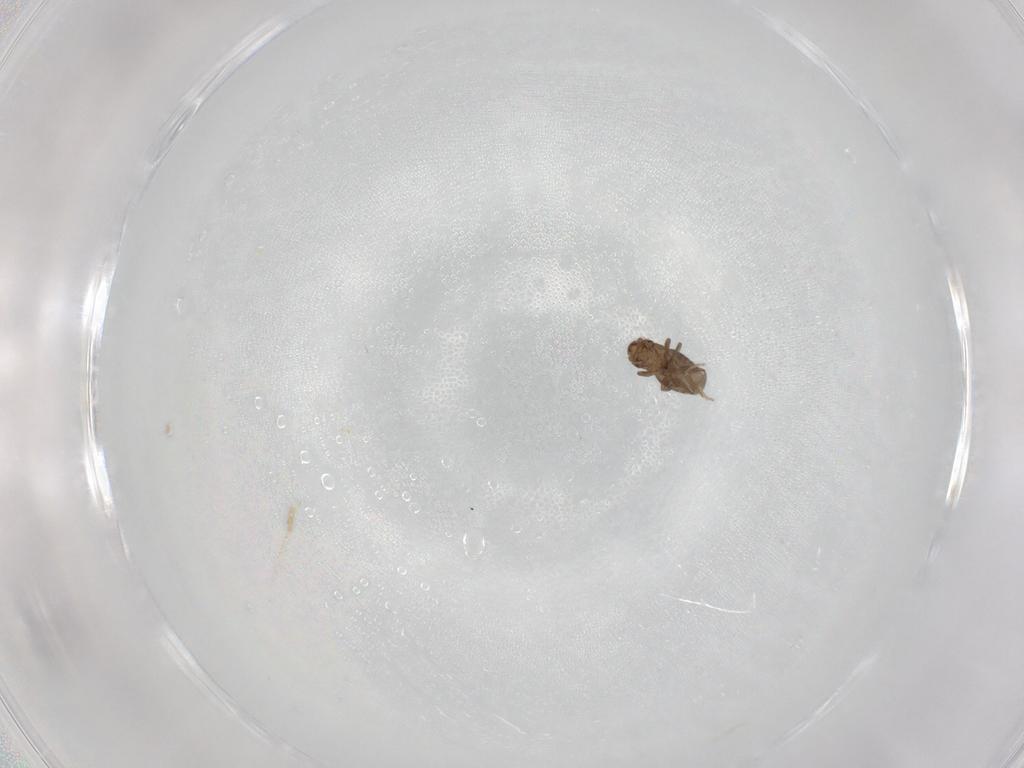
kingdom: Animalia
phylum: Arthropoda
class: Insecta
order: Diptera
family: Cecidomyiidae
